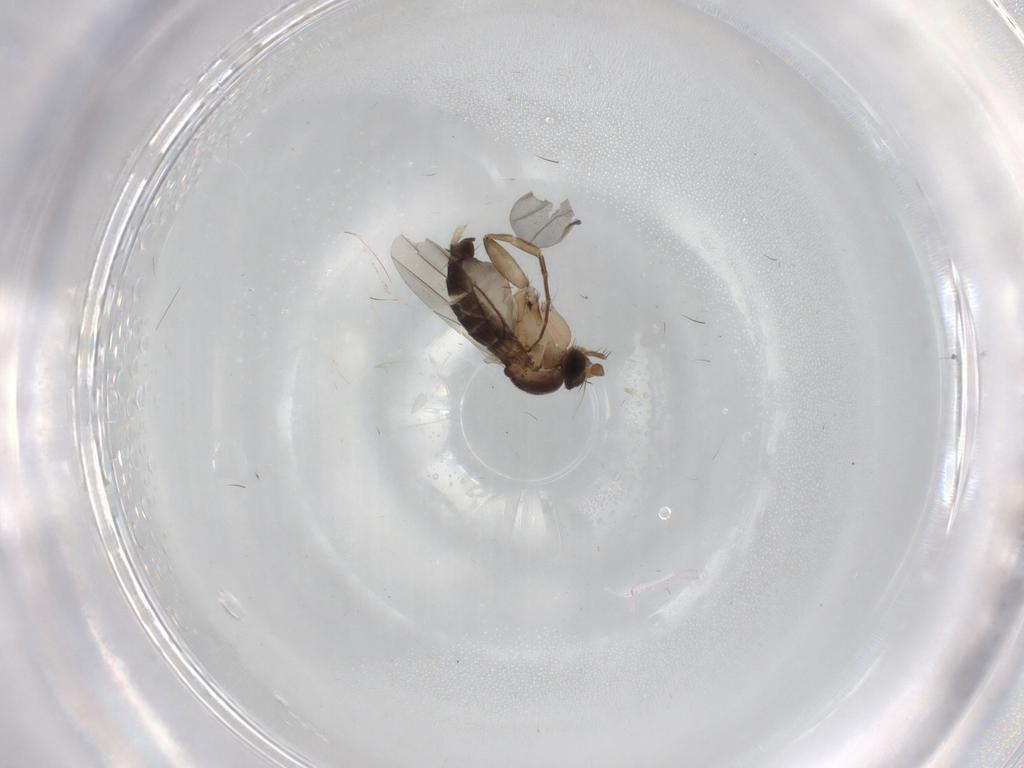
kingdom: Animalia
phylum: Arthropoda
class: Insecta
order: Diptera
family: Phoridae
